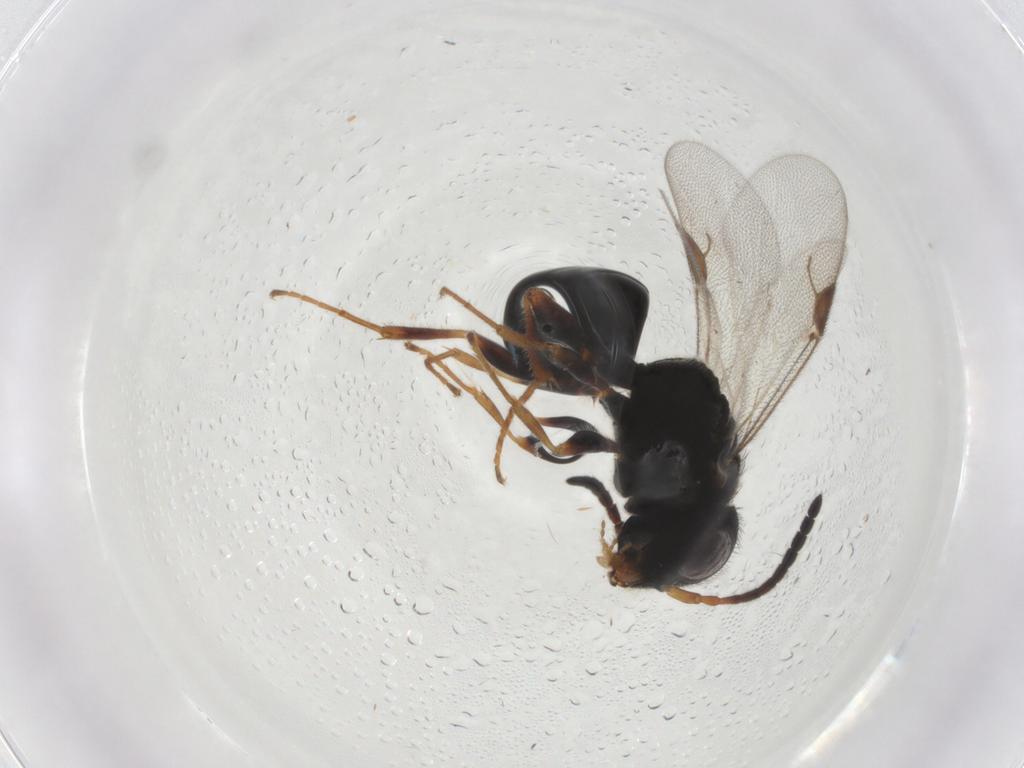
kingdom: Animalia
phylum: Arthropoda
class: Insecta
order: Hymenoptera
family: Dryinidae
